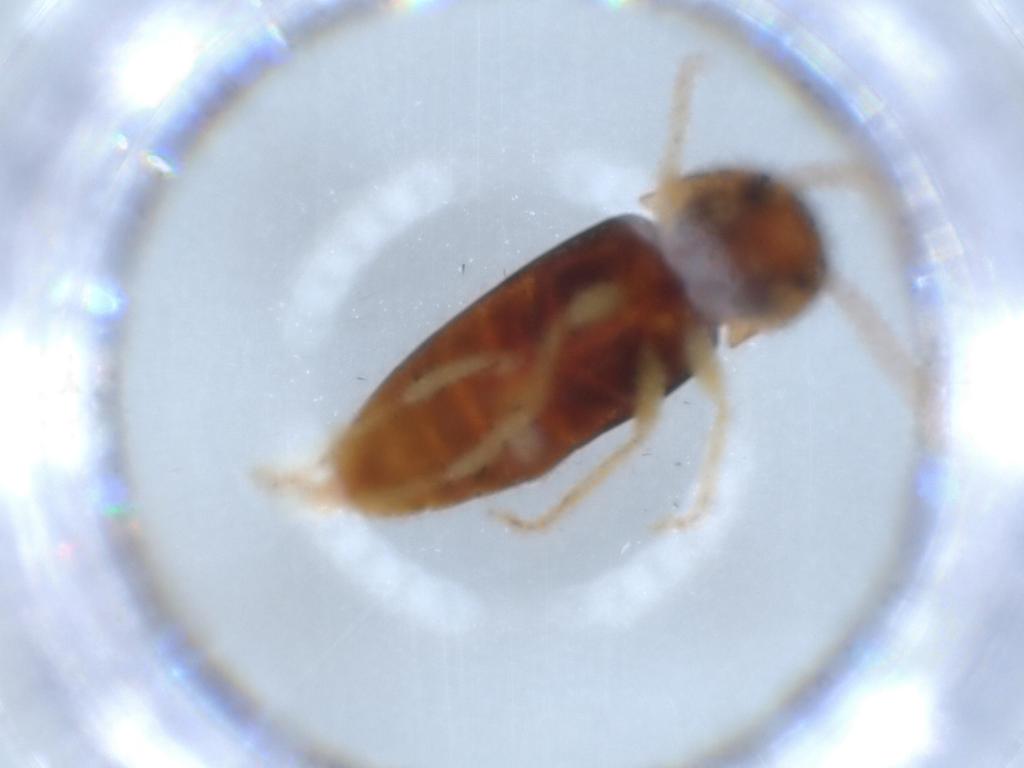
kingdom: Animalia
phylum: Arthropoda
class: Insecta
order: Coleoptera
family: Elateridae
